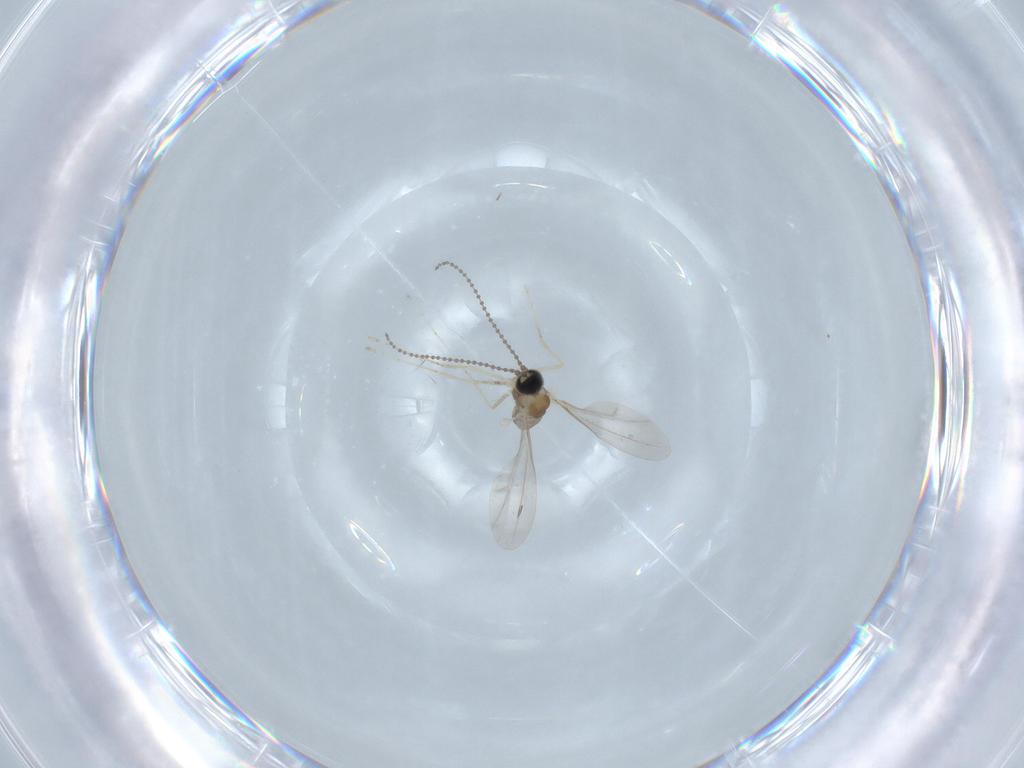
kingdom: Animalia
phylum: Arthropoda
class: Insecta
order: Diptera
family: Cecidomyiidae
